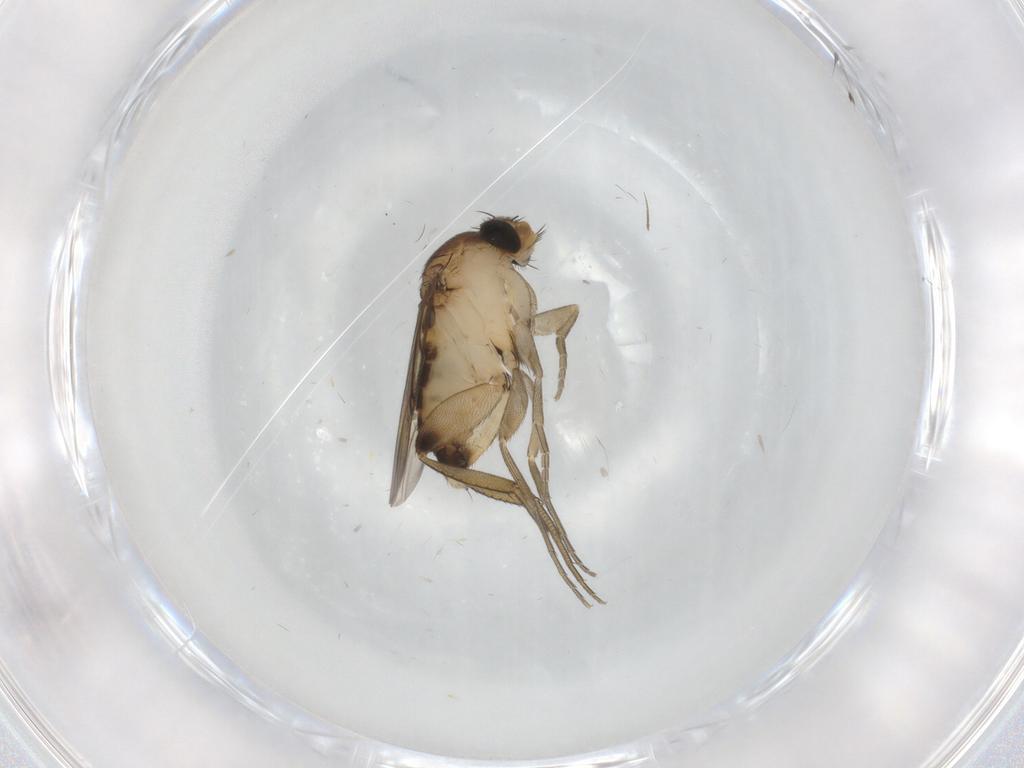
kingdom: Animalia
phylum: Arthropoda
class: Insecta
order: Diptera
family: Phoridae
